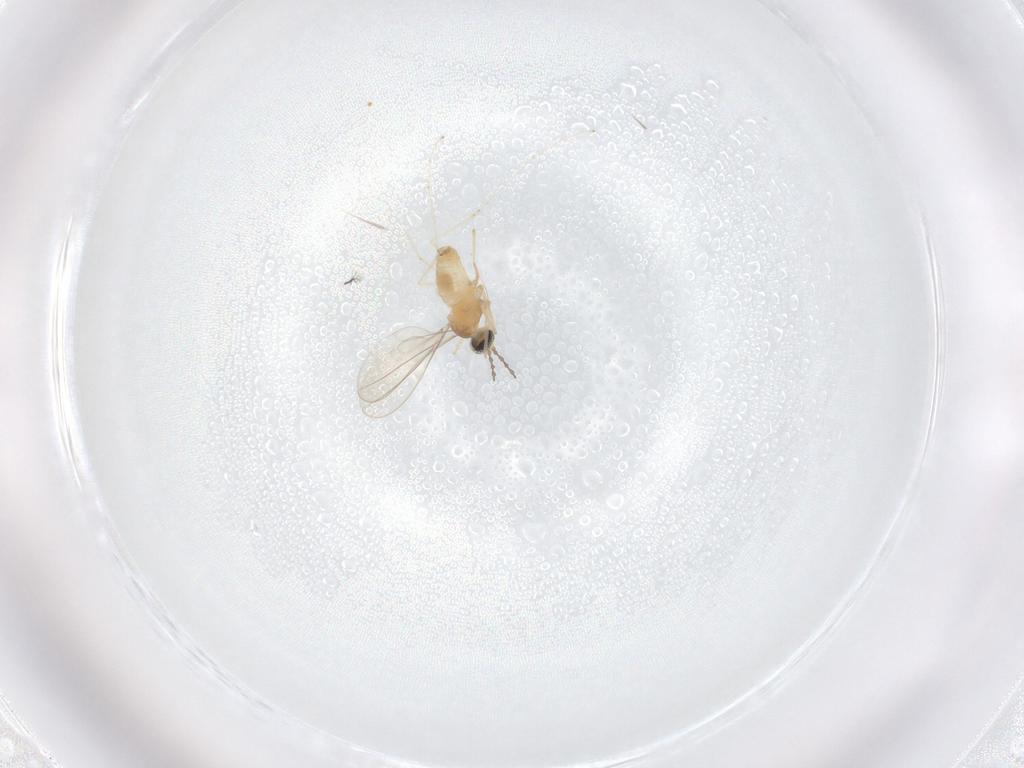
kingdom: Animalia
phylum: Arthropoda
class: Insecta
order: Diptera
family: Cecidomyiidae
